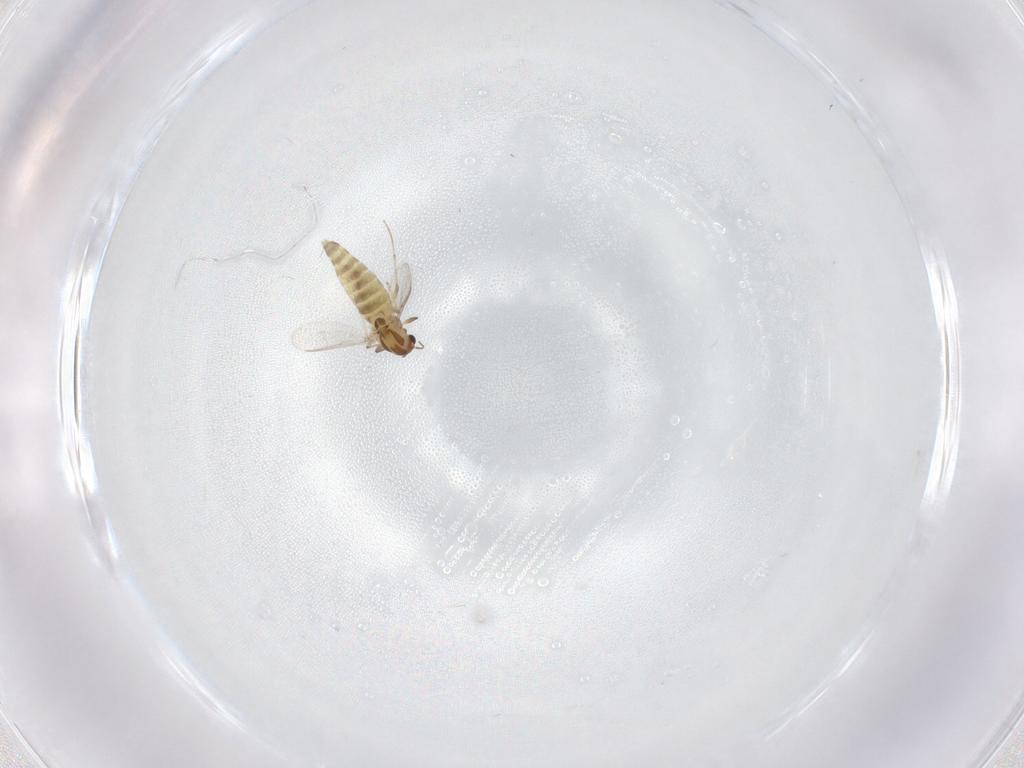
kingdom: Animalia
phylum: Arthropoda
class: Insecta
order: Diptera
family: Chironomidae
